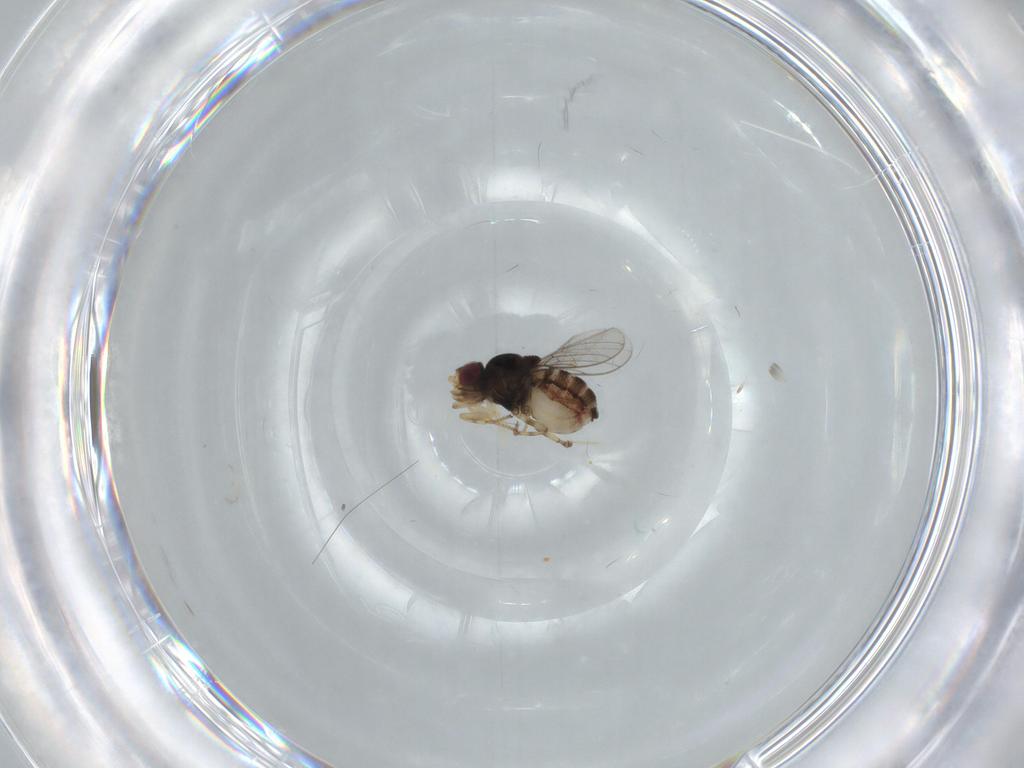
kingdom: Animalia
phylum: Arthropoda
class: Insecta
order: Diptera
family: Chloropidae
